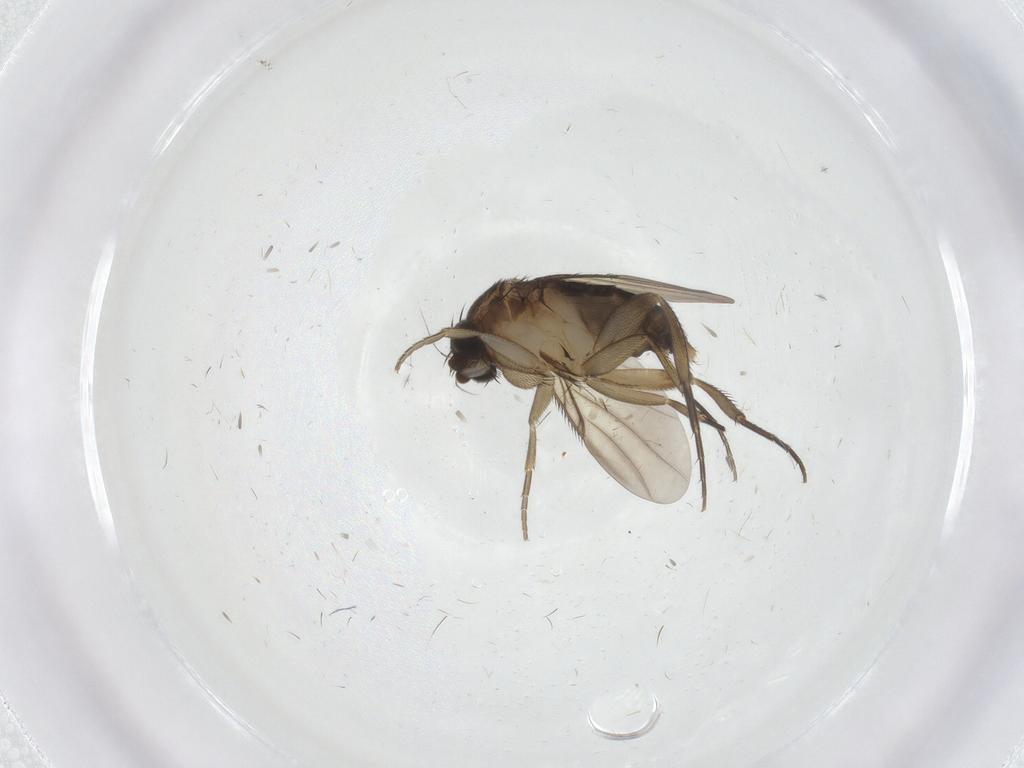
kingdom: Animalia
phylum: Arthropoda
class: Insecta
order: Diptera
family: Phoridae
